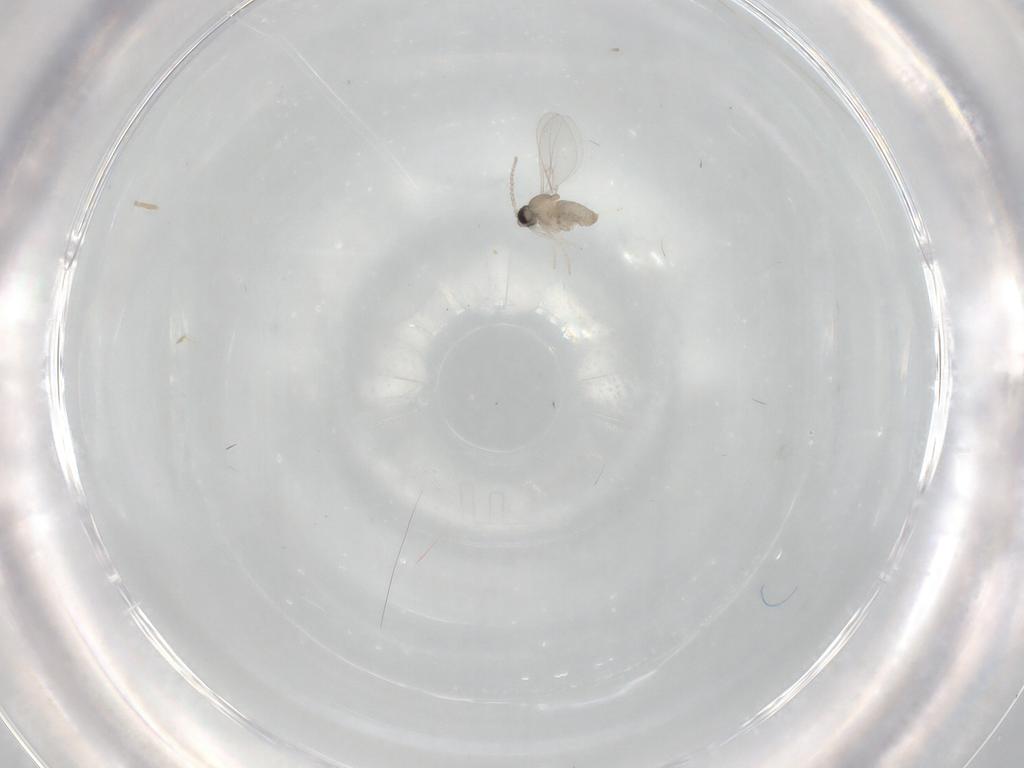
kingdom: Animalia
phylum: Arthropoda
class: Insecta
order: Diptera
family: Cecidomyiidae
